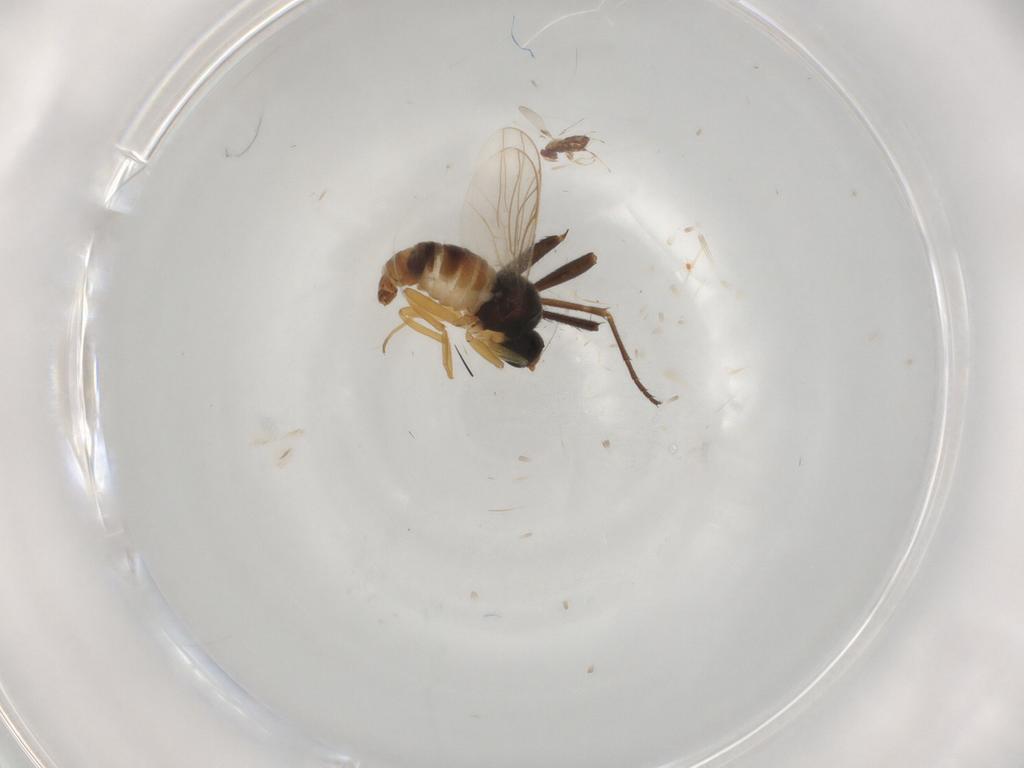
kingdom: Animalia
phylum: Arthropoda
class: Insecta
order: Diptera
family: Dolichopodidae
